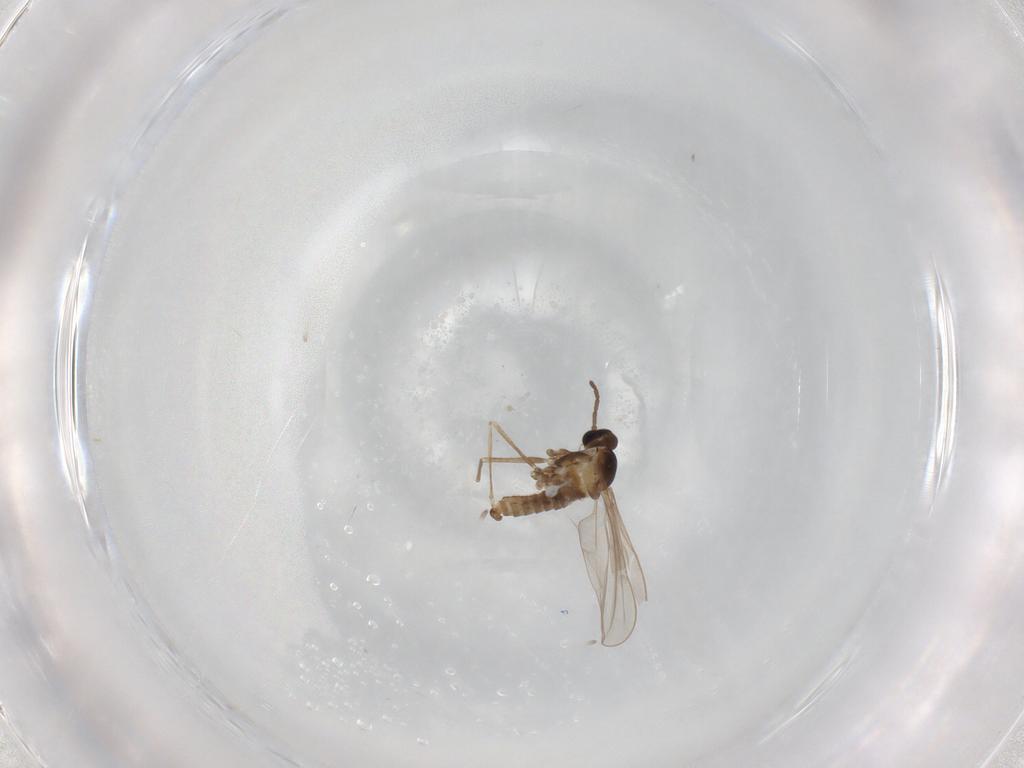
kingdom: Animalia
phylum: Arthropoda
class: Insecta
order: Diptera
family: Cecidomyiidae
